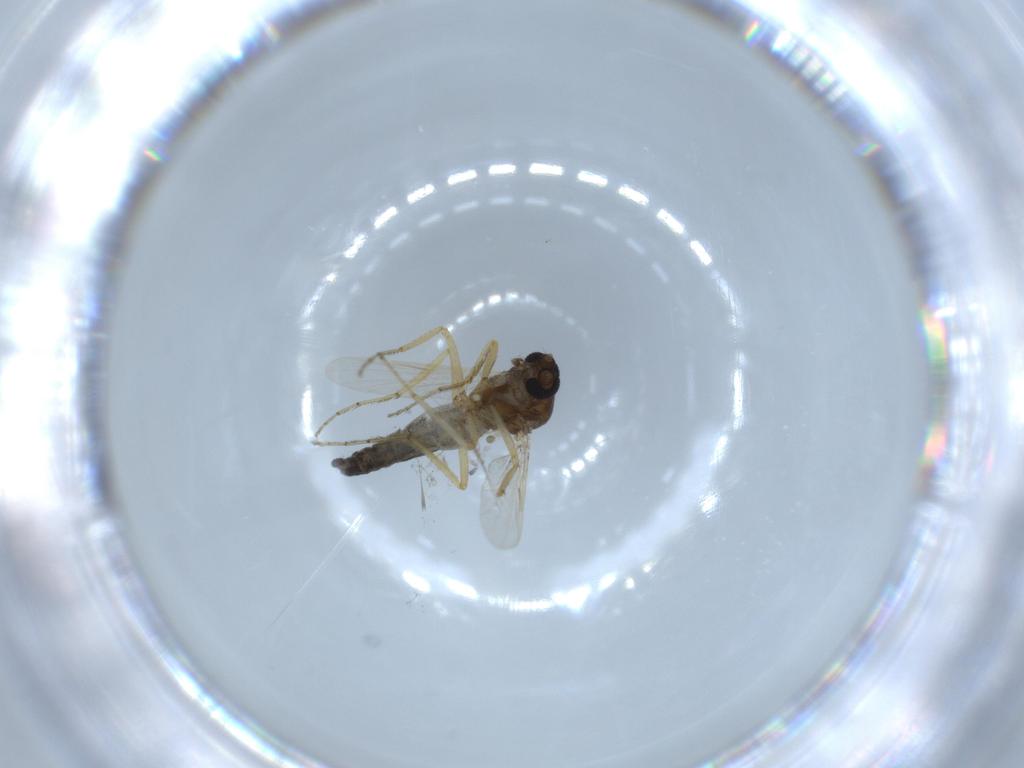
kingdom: Animalia
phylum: Arthropoda
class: Insecta
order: Diptera
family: Ceratopogonidae
